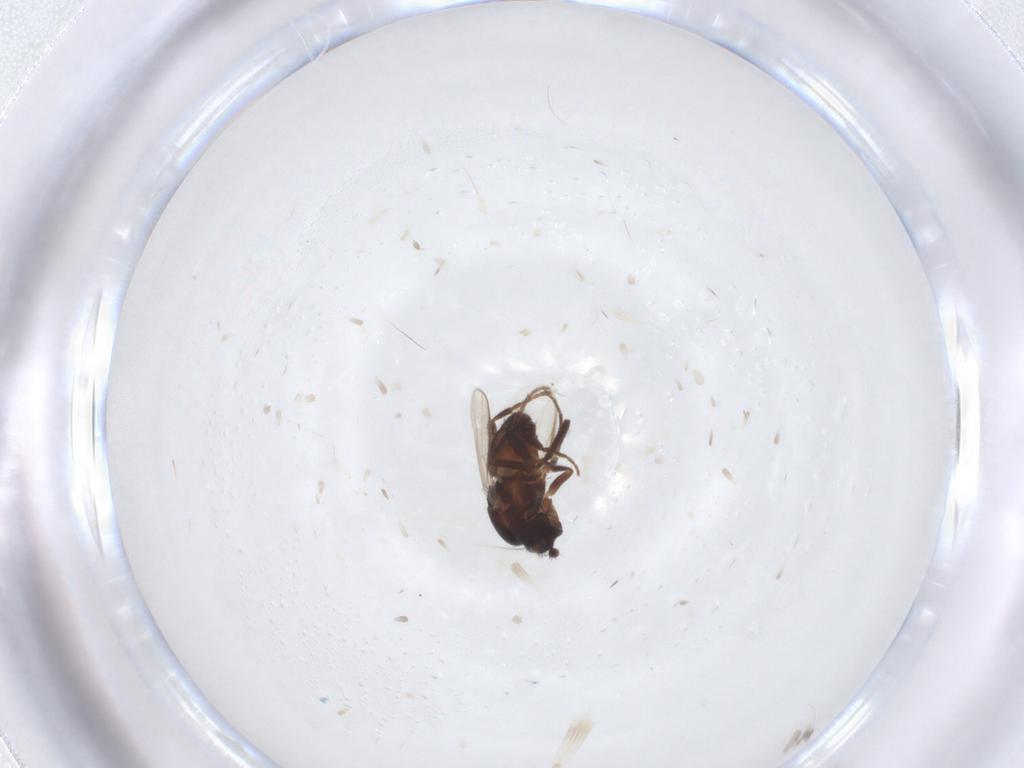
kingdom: Animalia
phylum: Arthropoda
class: Insecta
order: Diptera
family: Sphaeroceridae
